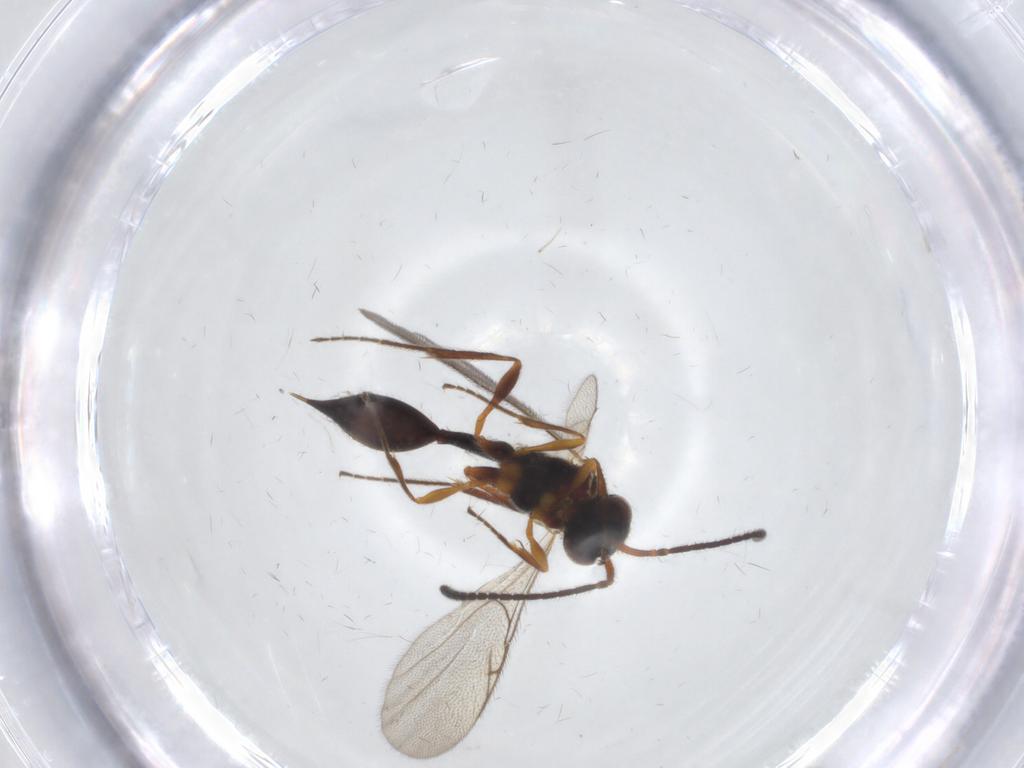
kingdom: Animalia
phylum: Arthropoda
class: Insecta
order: Hymenoptera
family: Diapriidae
